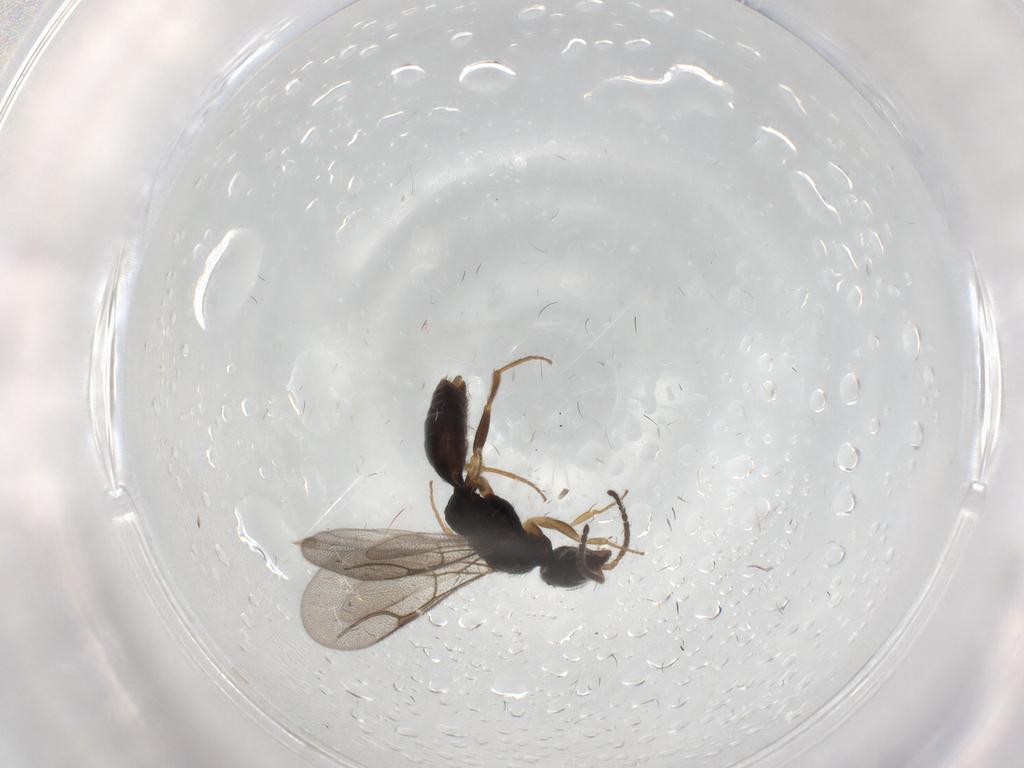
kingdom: Animalia
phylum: Arthropoda
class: Insecta
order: Hymenoptera
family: Bethylidae
